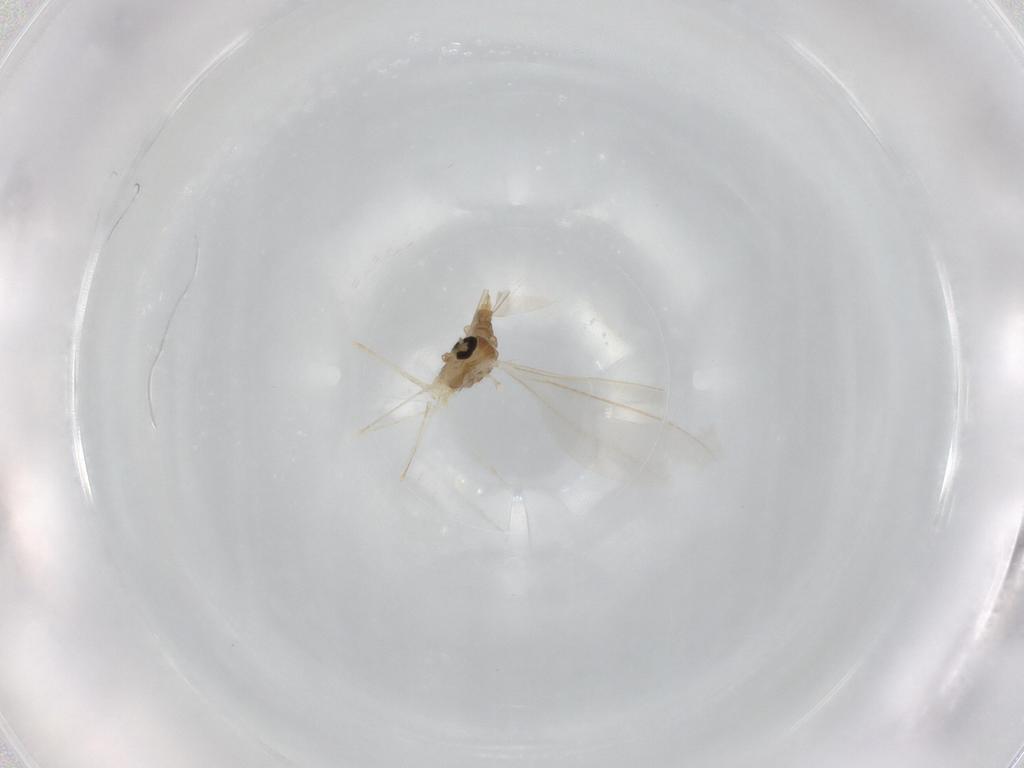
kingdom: Animalia
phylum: Arthropoda
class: Insecta
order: Diptera
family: Cecidomyiidae
